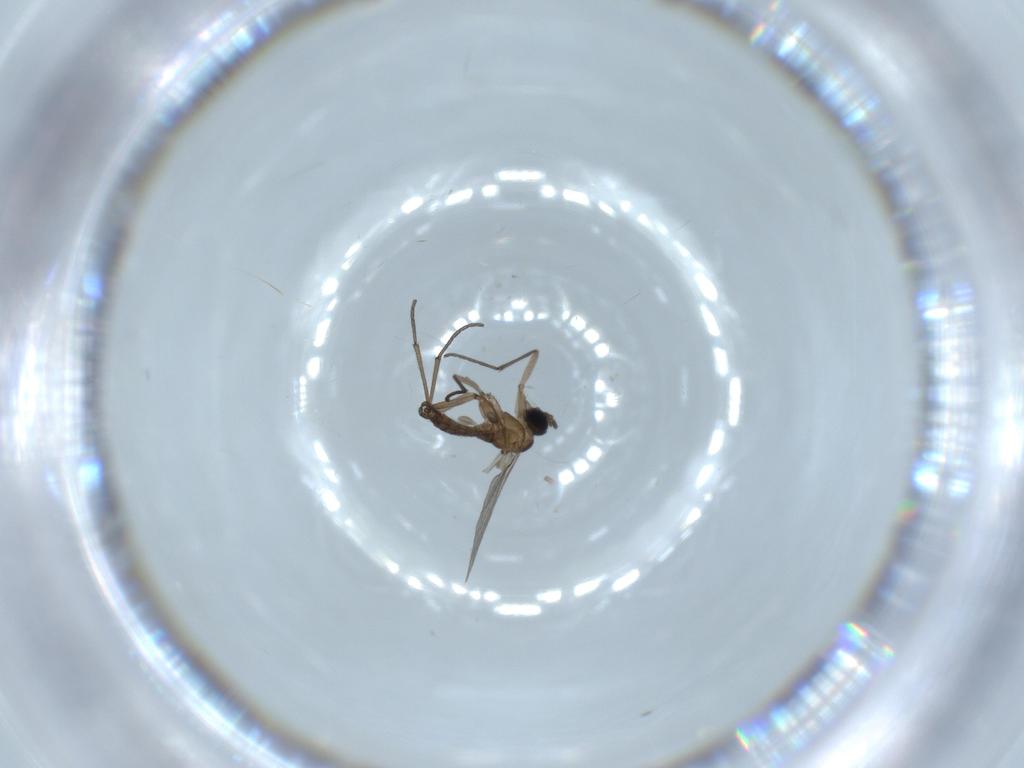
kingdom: Animalia
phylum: Arthropoda
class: Insecta
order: Diptera
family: Chironomidae
